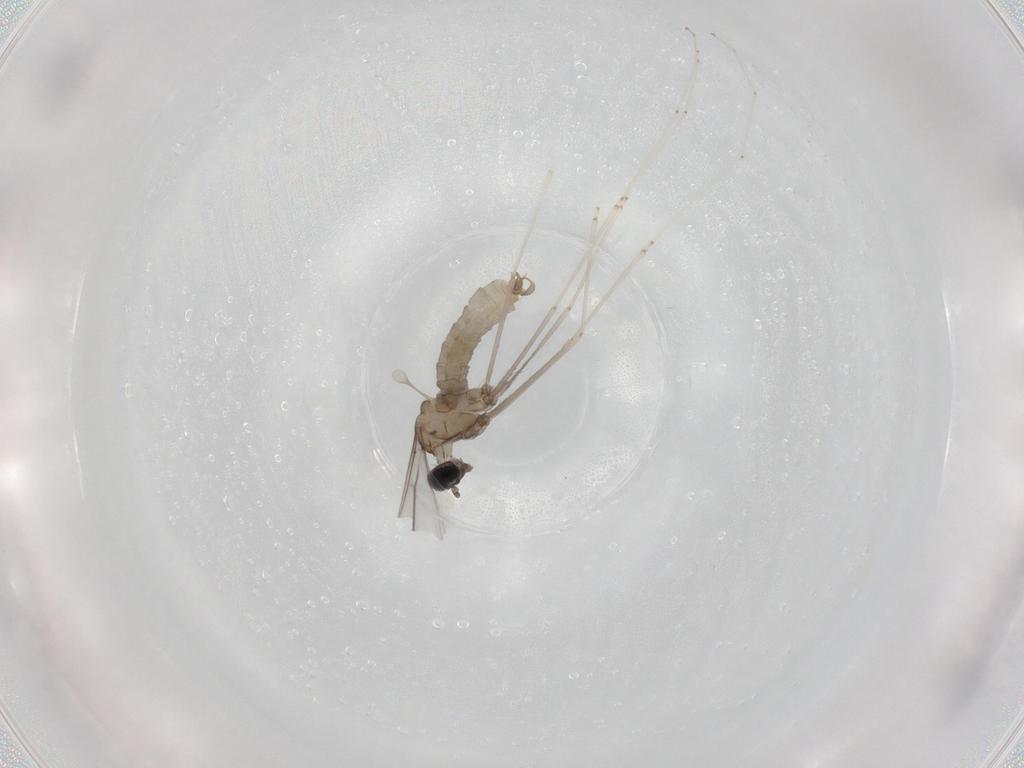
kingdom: Animalia
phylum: Arthropoda
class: Insecta
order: Diptera
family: Cecidomyiidae
